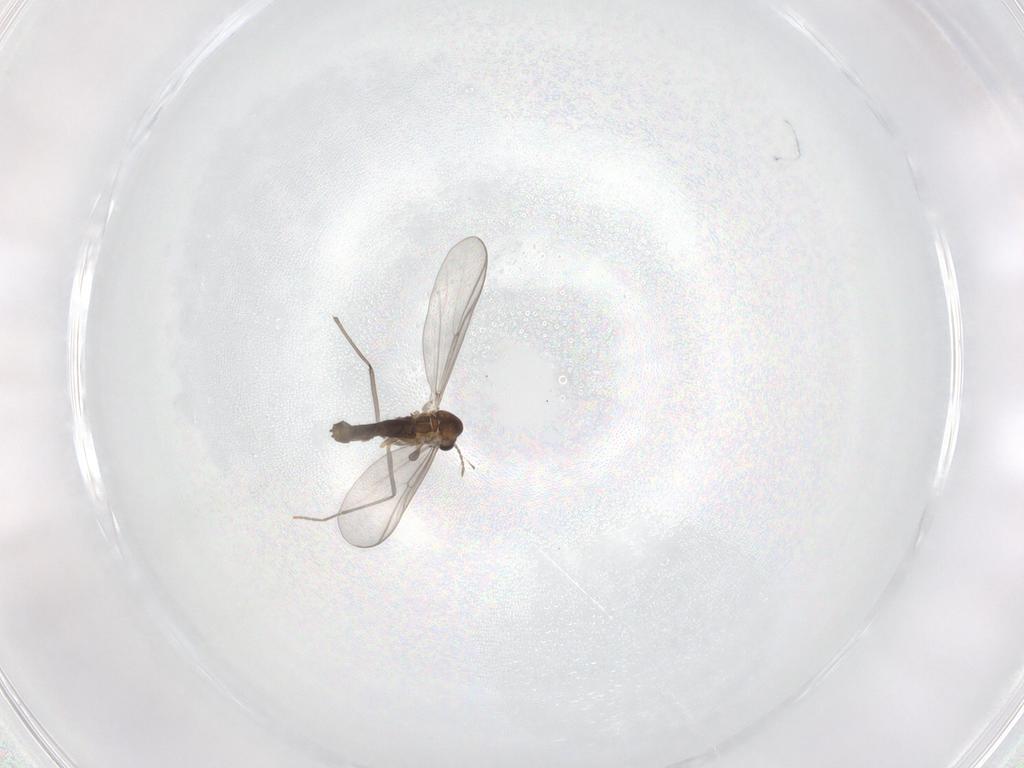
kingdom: Animalia
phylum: Arthropoda
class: Insecta
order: Diptera
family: Chironomidae
